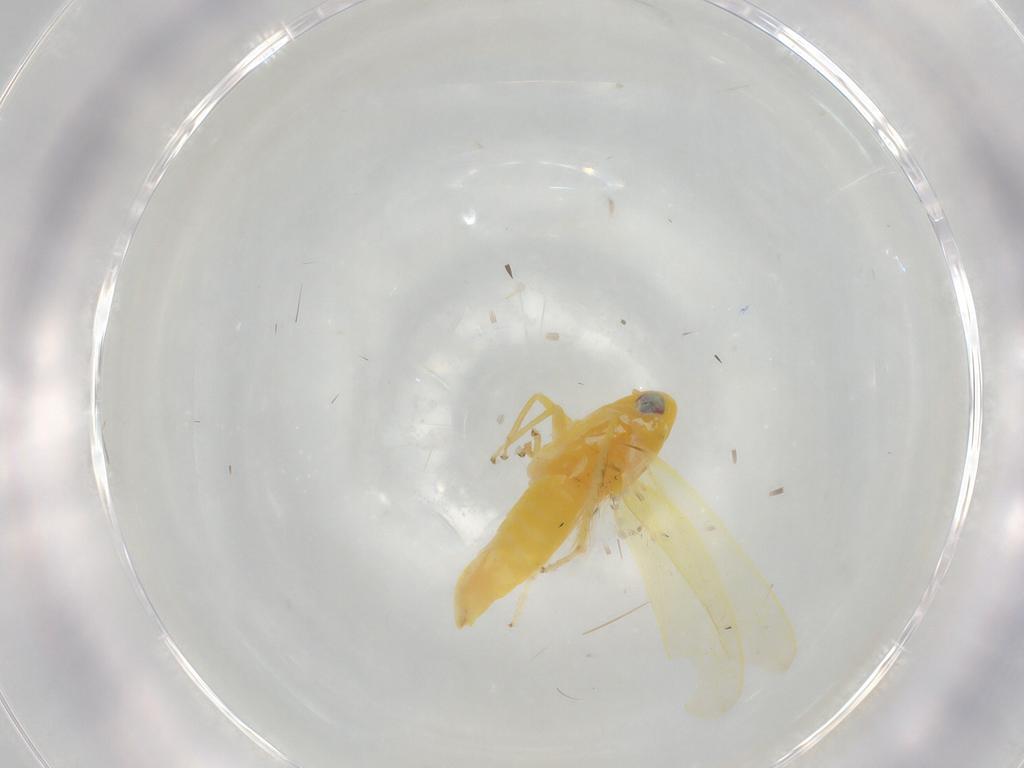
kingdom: Animalia
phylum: Arthropoda
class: Insecta
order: Hemiptera
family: Cicadellidae
